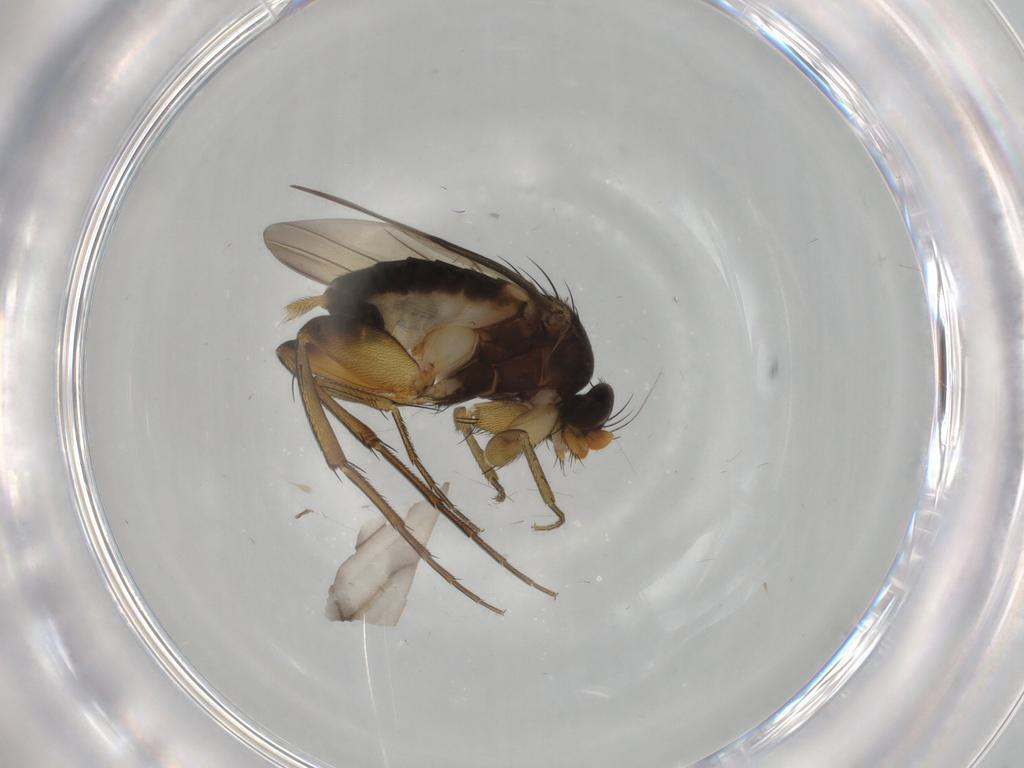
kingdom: Animalia
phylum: Arthropoda
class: Insecta
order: Diptera
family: Phoridae
